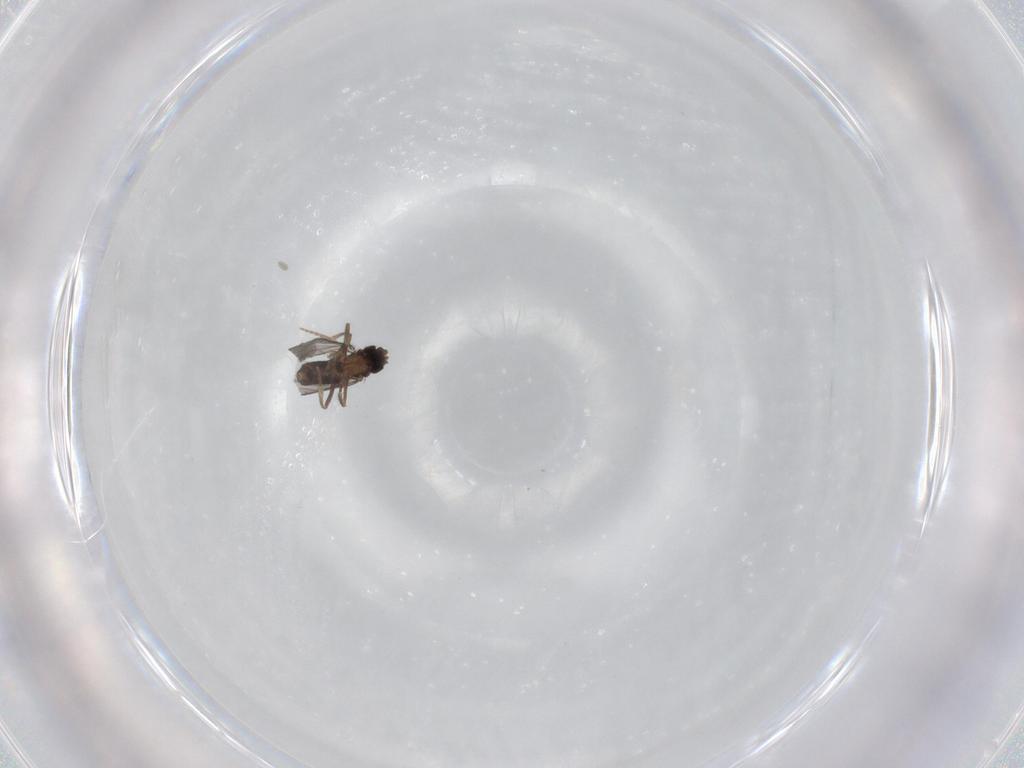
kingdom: Animalia
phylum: Arthropoda
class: Insecta
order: Diptera
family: Phoridae
